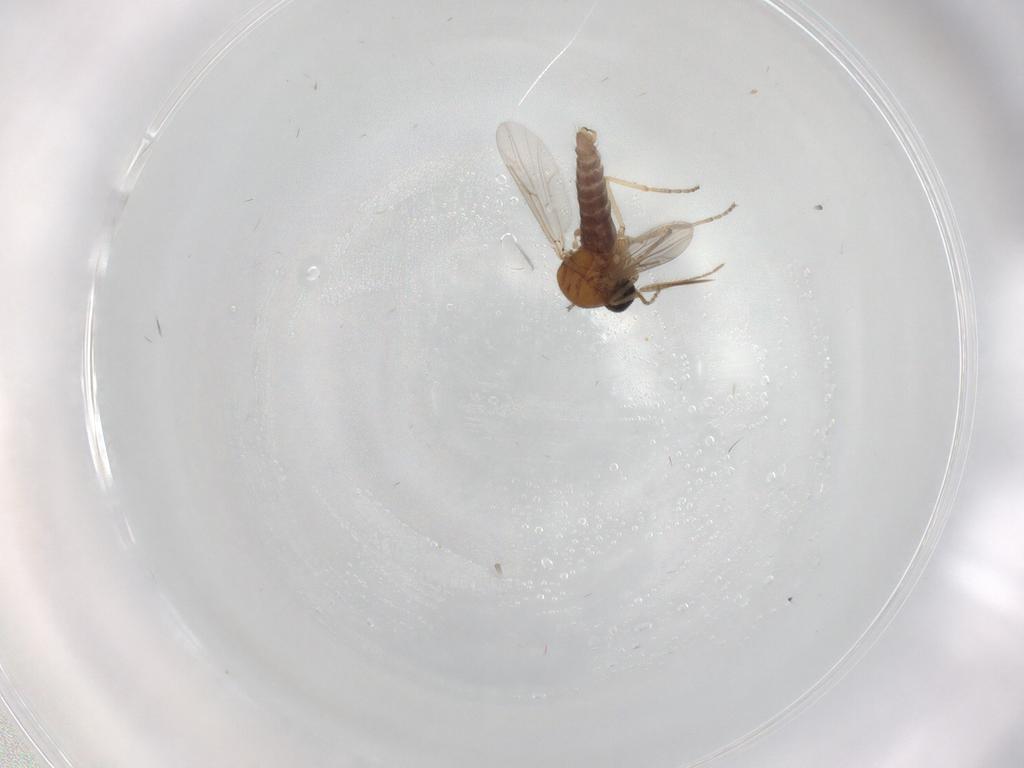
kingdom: Animalia
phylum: Arthropoda
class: Insecta
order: Diptera
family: Ceratopogonidae
